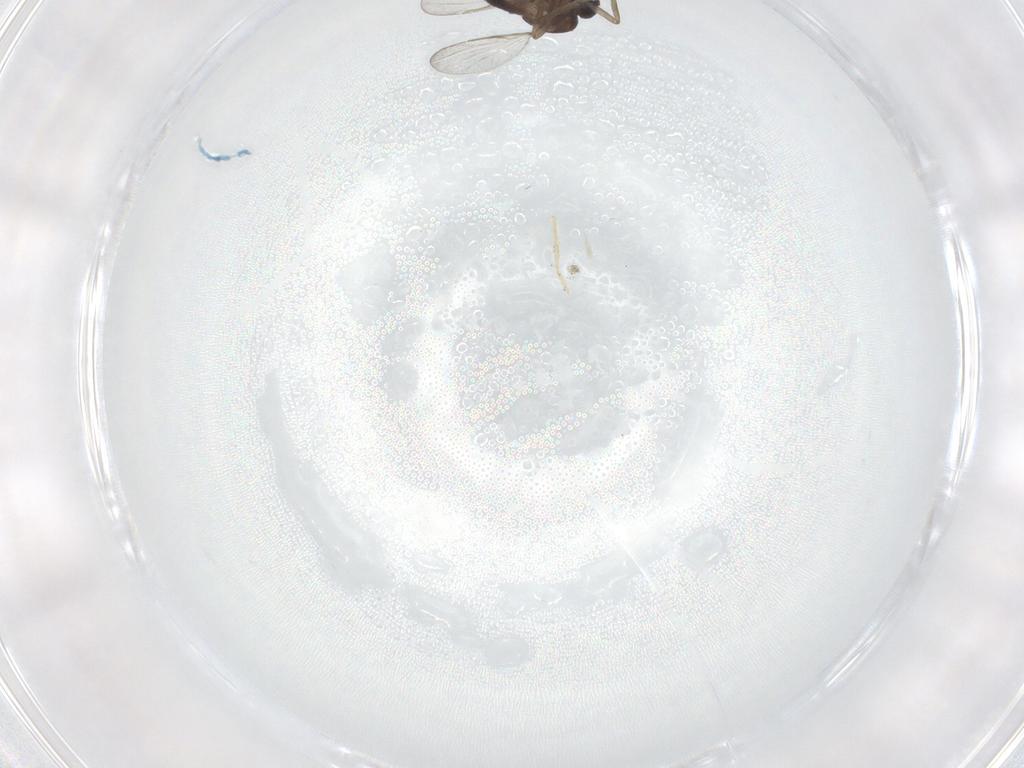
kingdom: Animalia
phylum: Arthropoda
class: Insecta
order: Diptera
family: Ceratopogonidae
